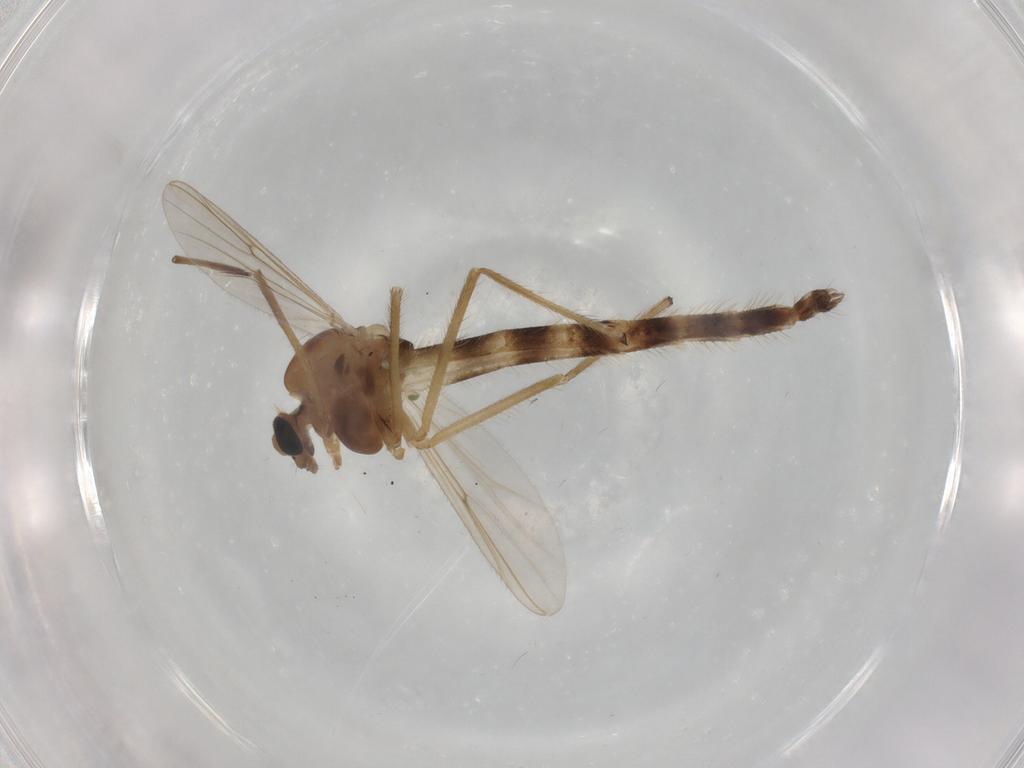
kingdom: Animalia
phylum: Arthropoda
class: Insecta
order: Diptera
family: Chironomidae
